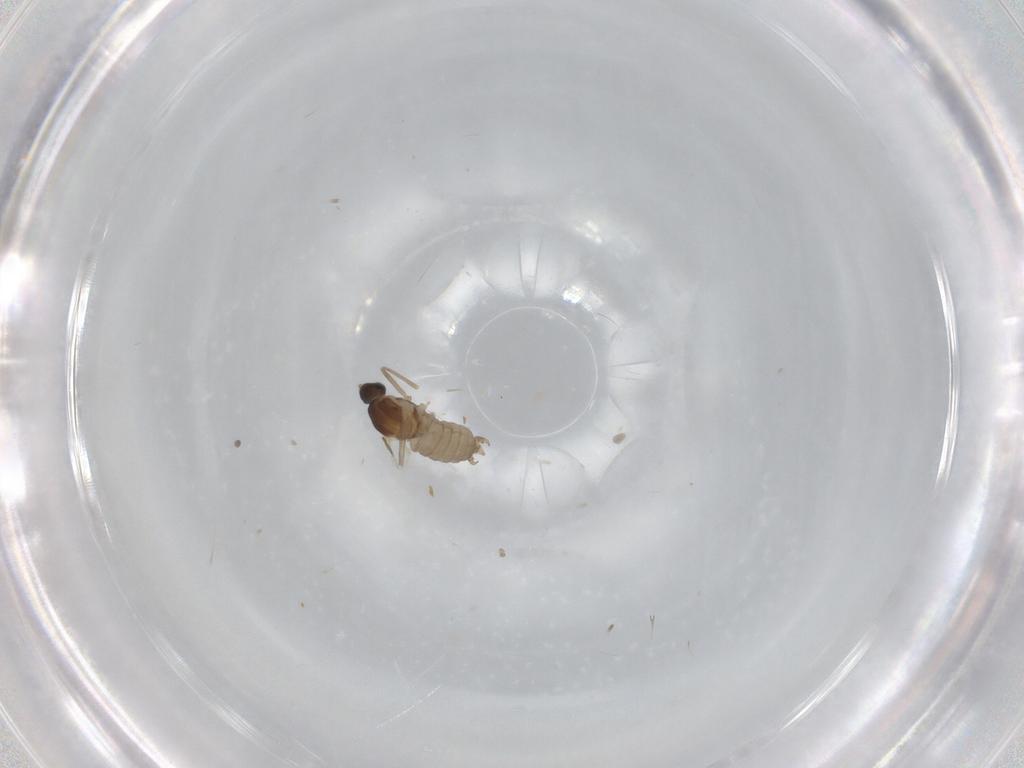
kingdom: Animalia
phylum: Arthropoda
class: Insecta
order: Diptera
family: Cecidomyiidae
